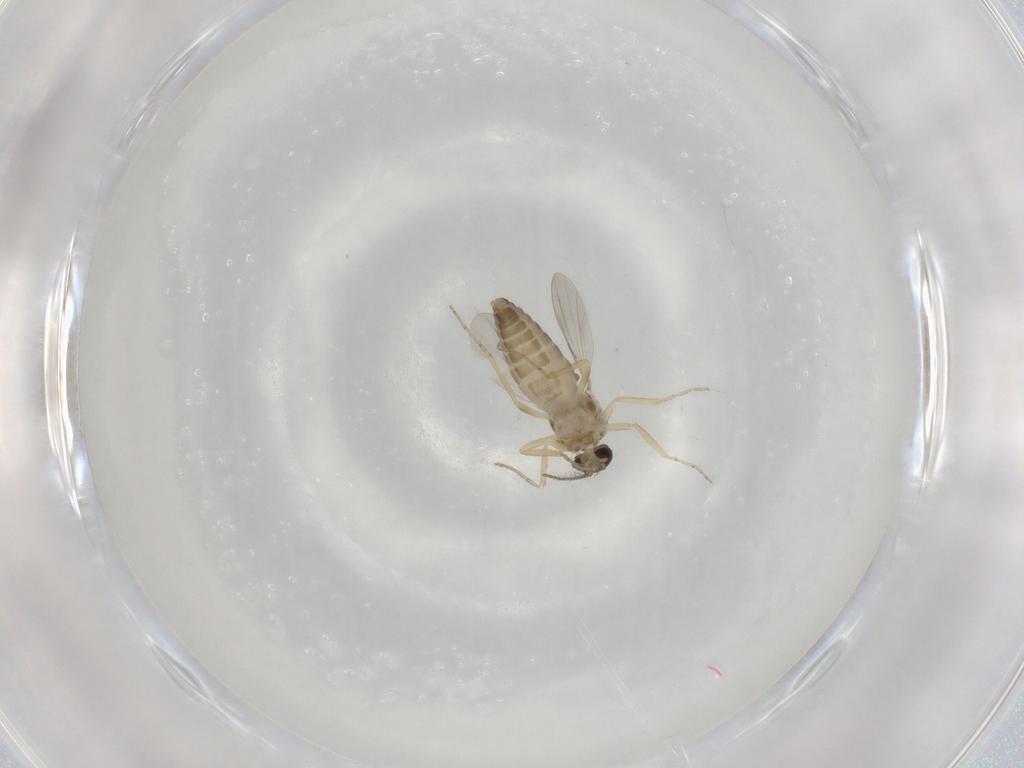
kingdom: Animalia
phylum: Arthropoda
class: Insecta
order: Diptera
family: Ceratopogonidae
